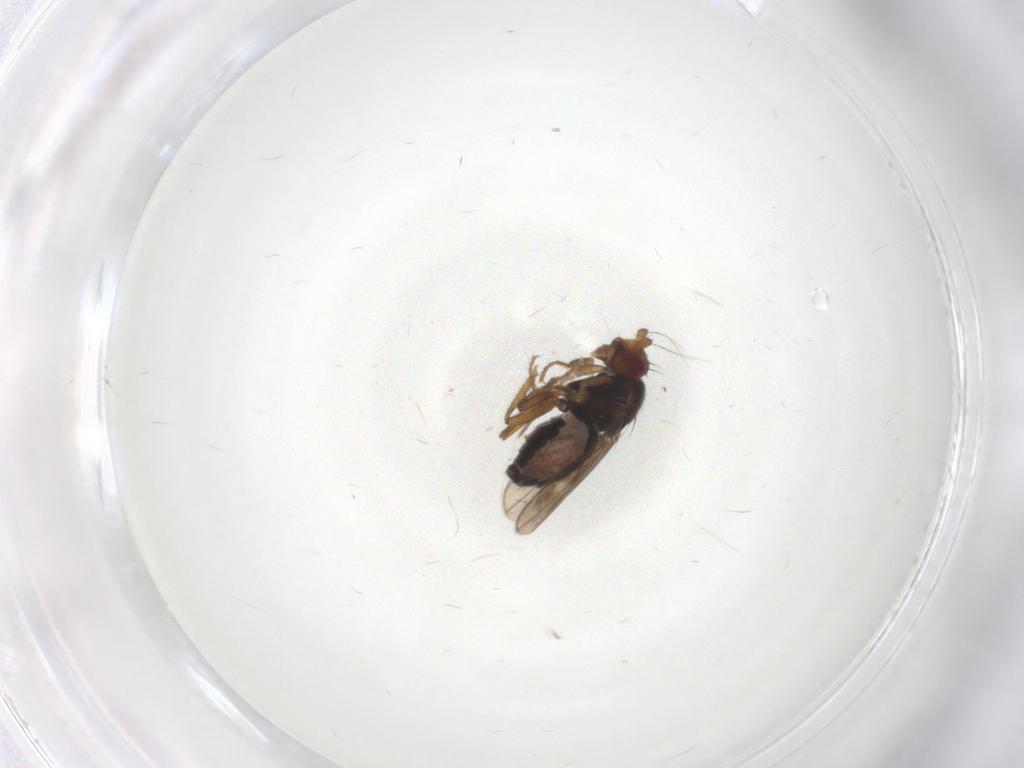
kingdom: Animalia
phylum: Arthropoda
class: Insecta
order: Diptera
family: Sphaeroceridae
